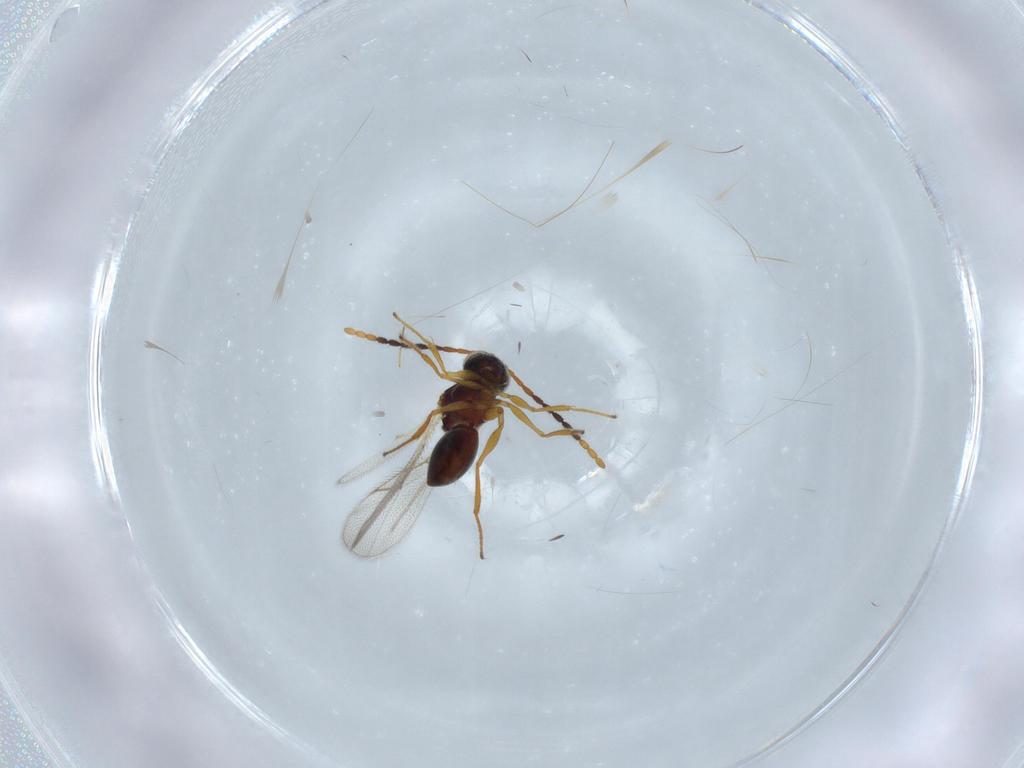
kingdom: Animalia
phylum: Arthropoda
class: Insecta
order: Hymenoptera
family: Figitidae
